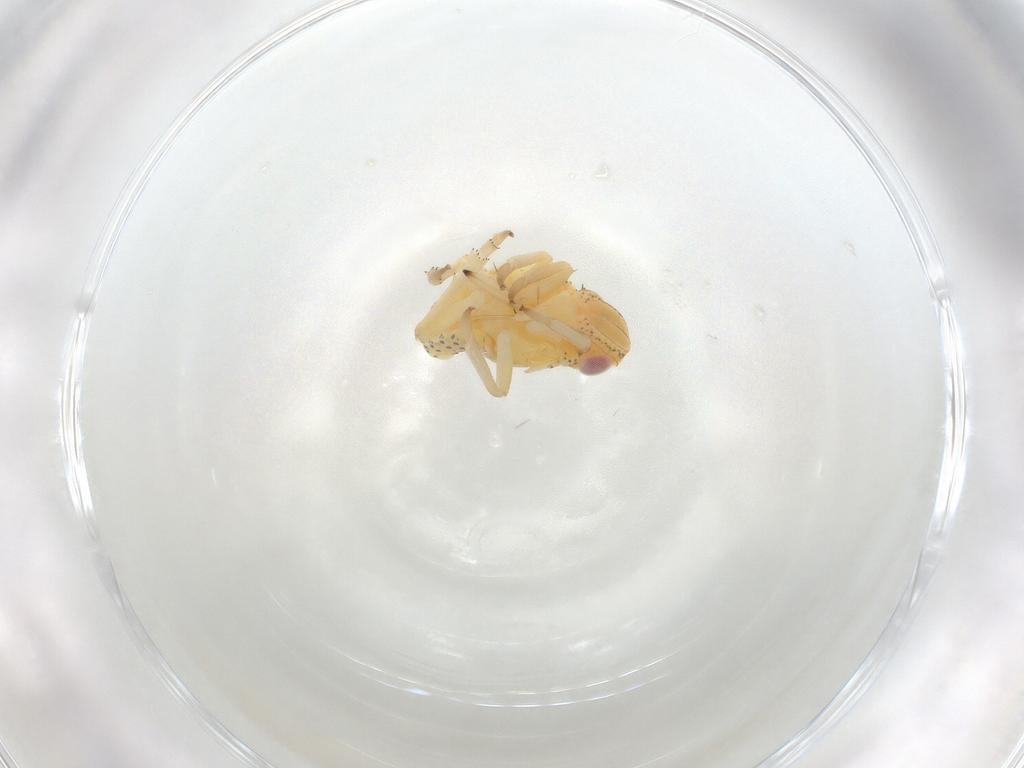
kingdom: Animalia
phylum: Arthropoda
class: Insecta
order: Hemiptera
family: Tropiduchidae
